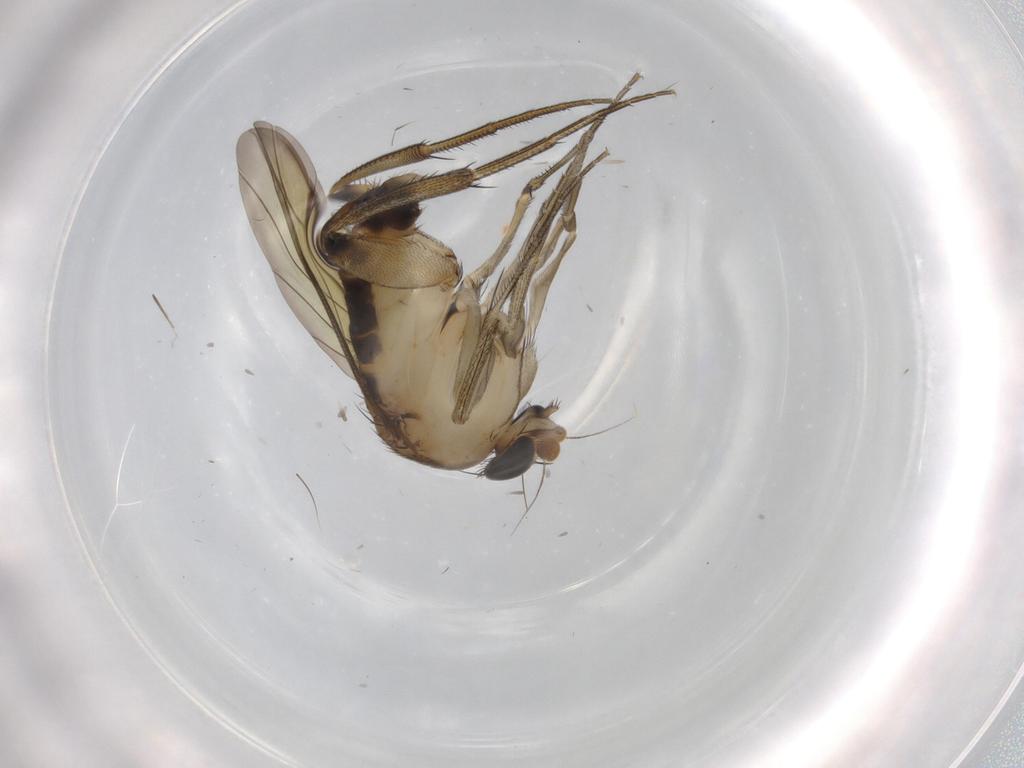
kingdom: Animalia
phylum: Arthropoda
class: Insecta
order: Diptera
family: Phoridae
